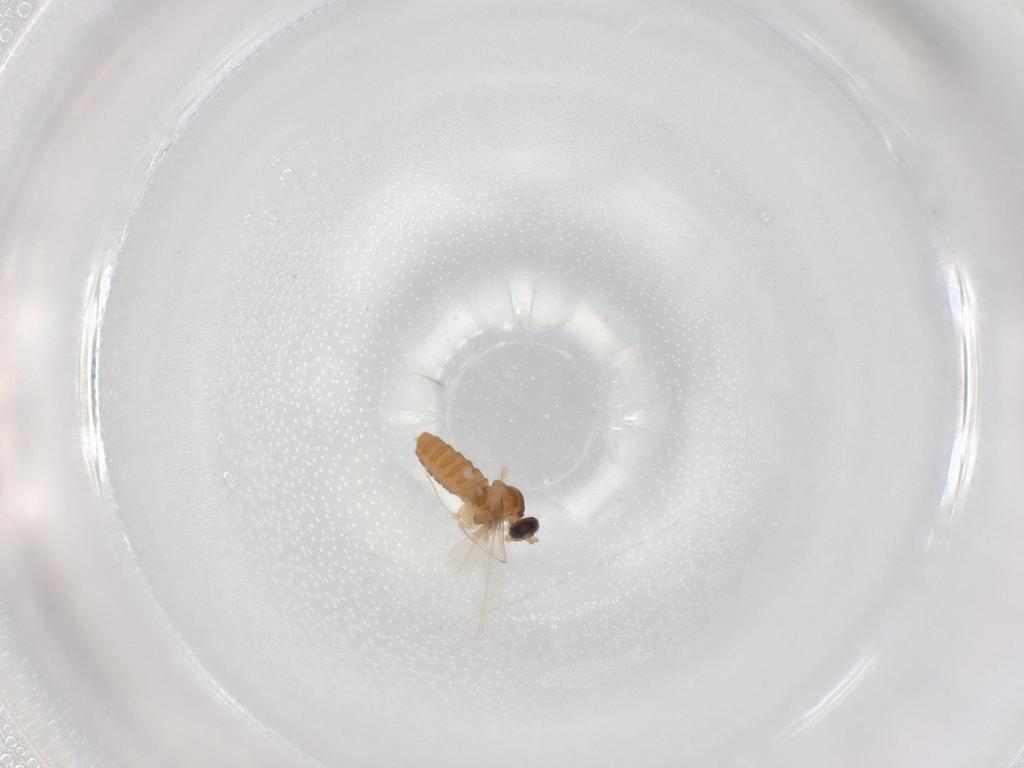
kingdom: Animalia
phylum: Arthropoda
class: Insecta
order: Diptera
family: Cecidomyiidae
